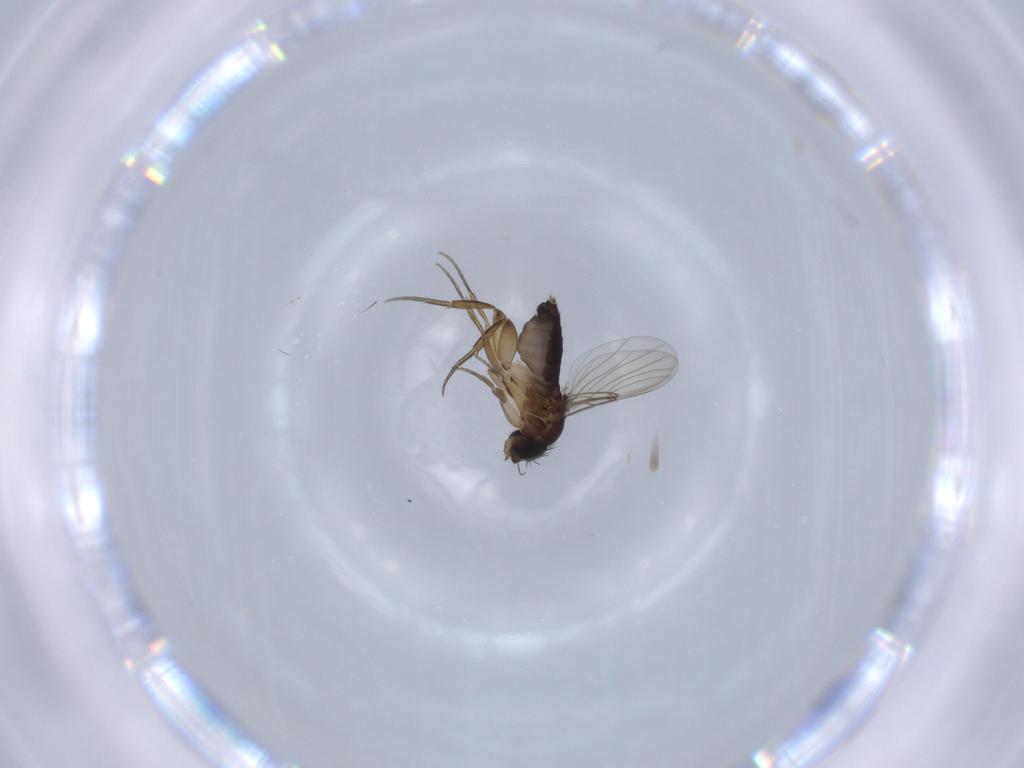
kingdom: Animalia
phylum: Arthropoda
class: Insecta
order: Diptera
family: Phoridae
